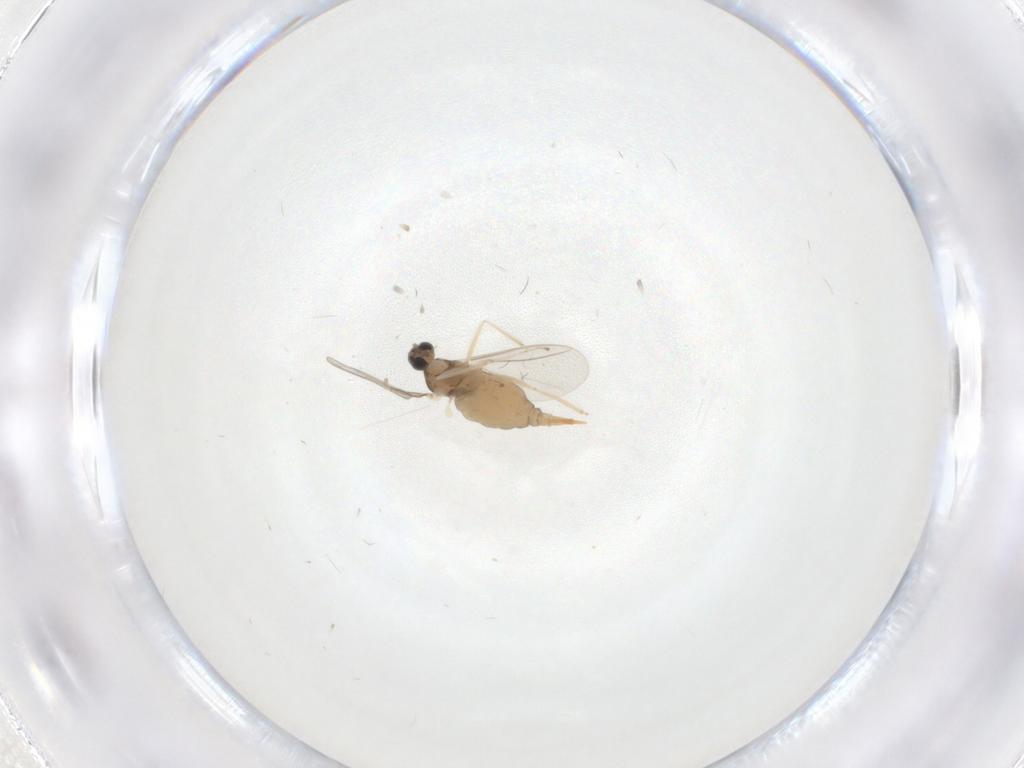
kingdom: Animalia
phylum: Arthropoda
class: Insecta
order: Diptera
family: Cecidomyiidae
